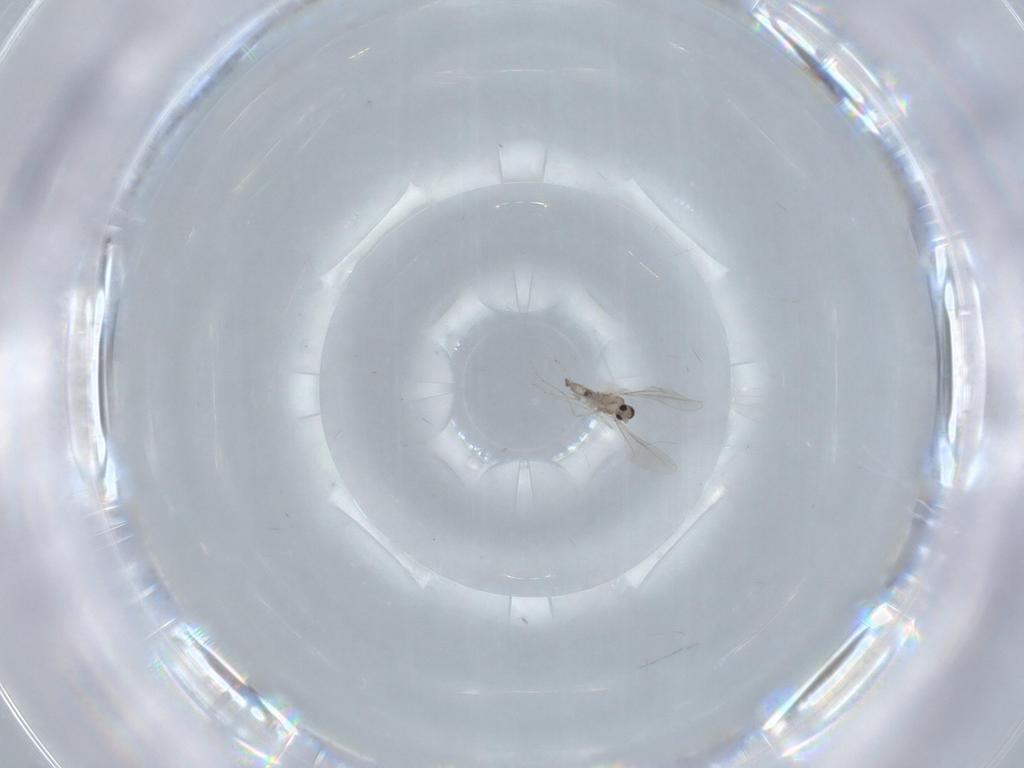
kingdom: Animalia
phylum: Arthropoda
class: Insecta
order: Diptera
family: Cecidomyiidae
